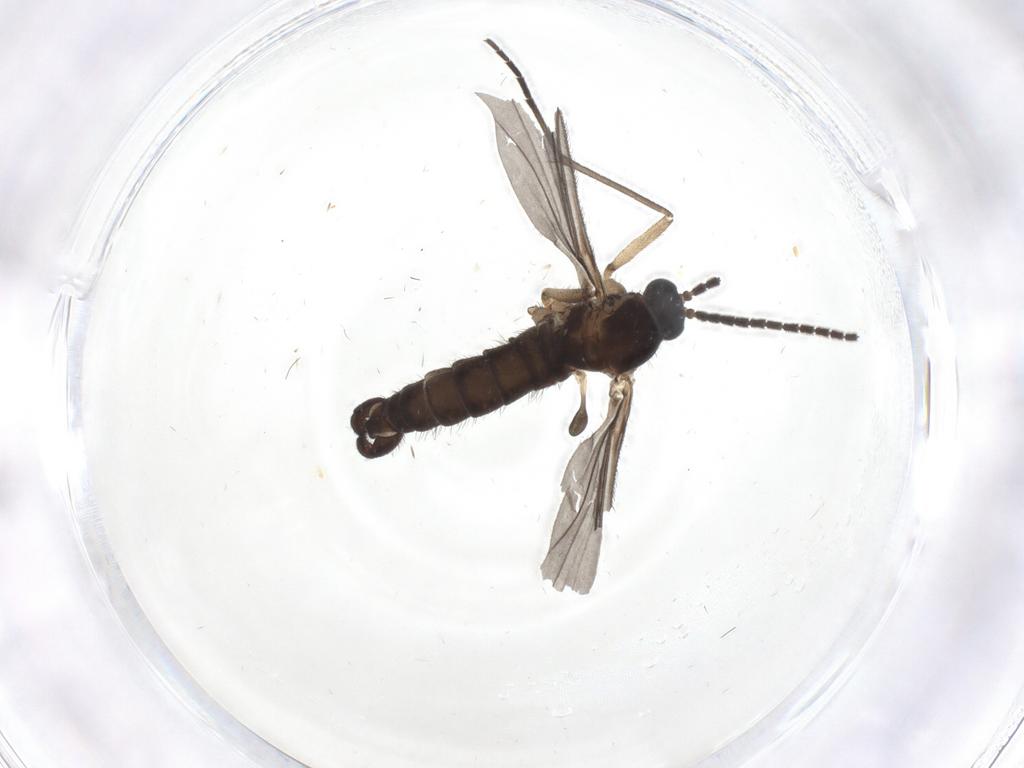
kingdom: Animalia
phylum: Arthropoda
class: Insecta
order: Diptera
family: Sciaridae
